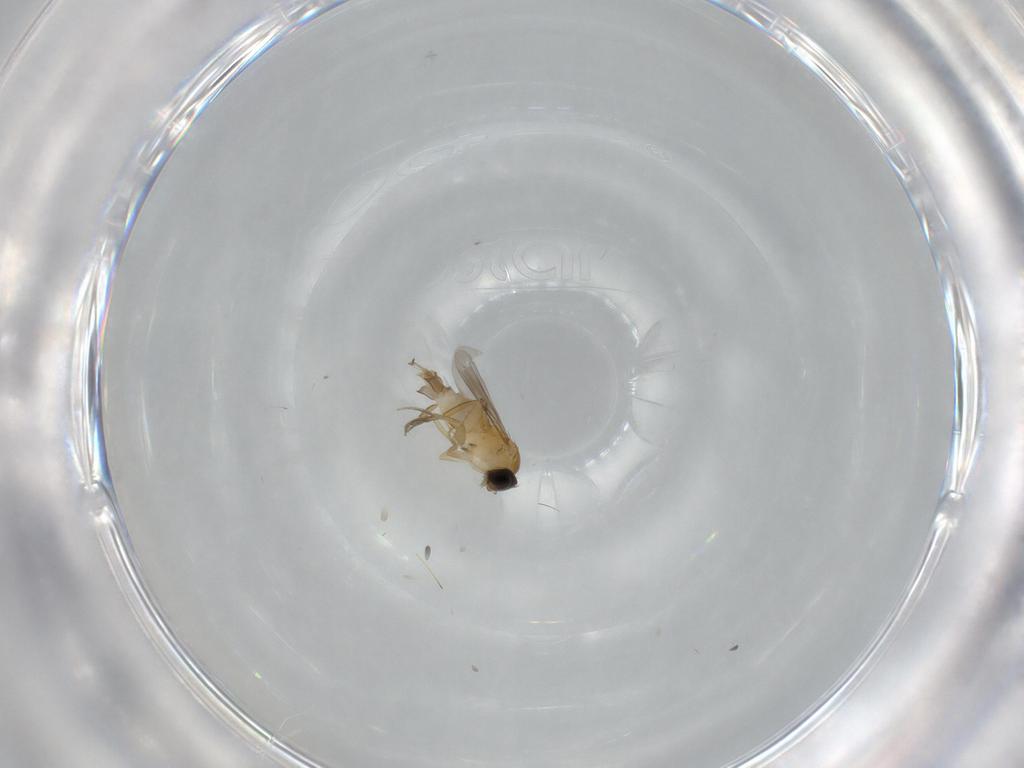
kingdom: Animalia
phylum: Arthropoda
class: Insecta
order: Diptera
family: Phoridae
